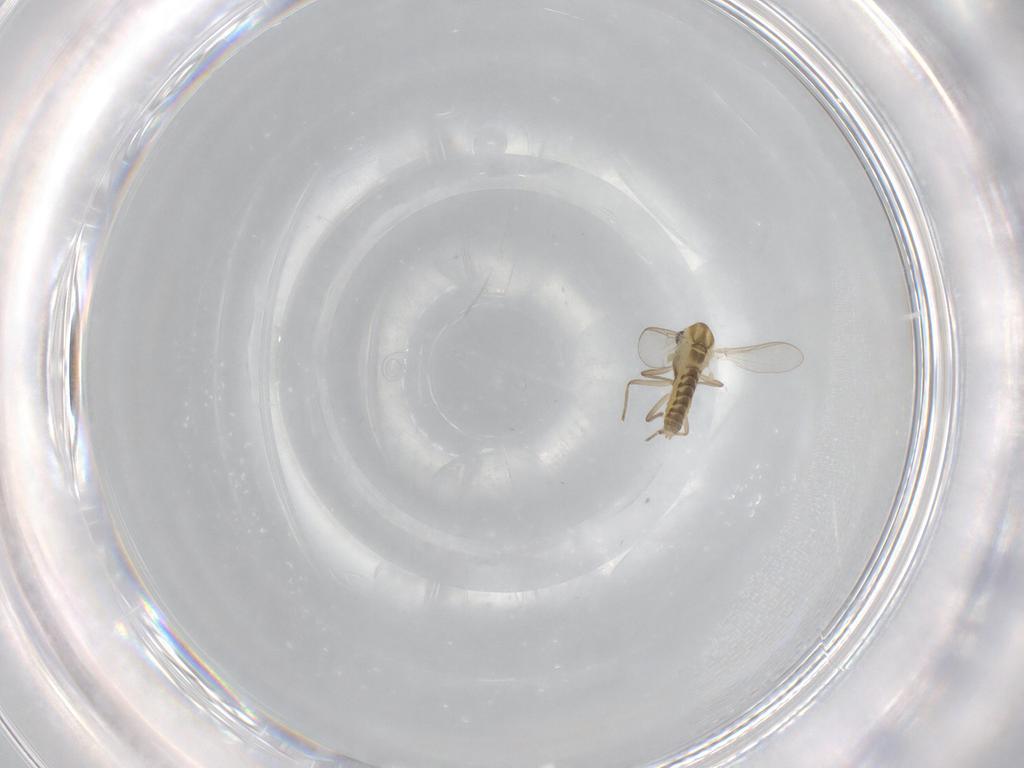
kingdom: Animalia
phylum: Arthropoda
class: Insecta
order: Diptera
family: Chironomidae
